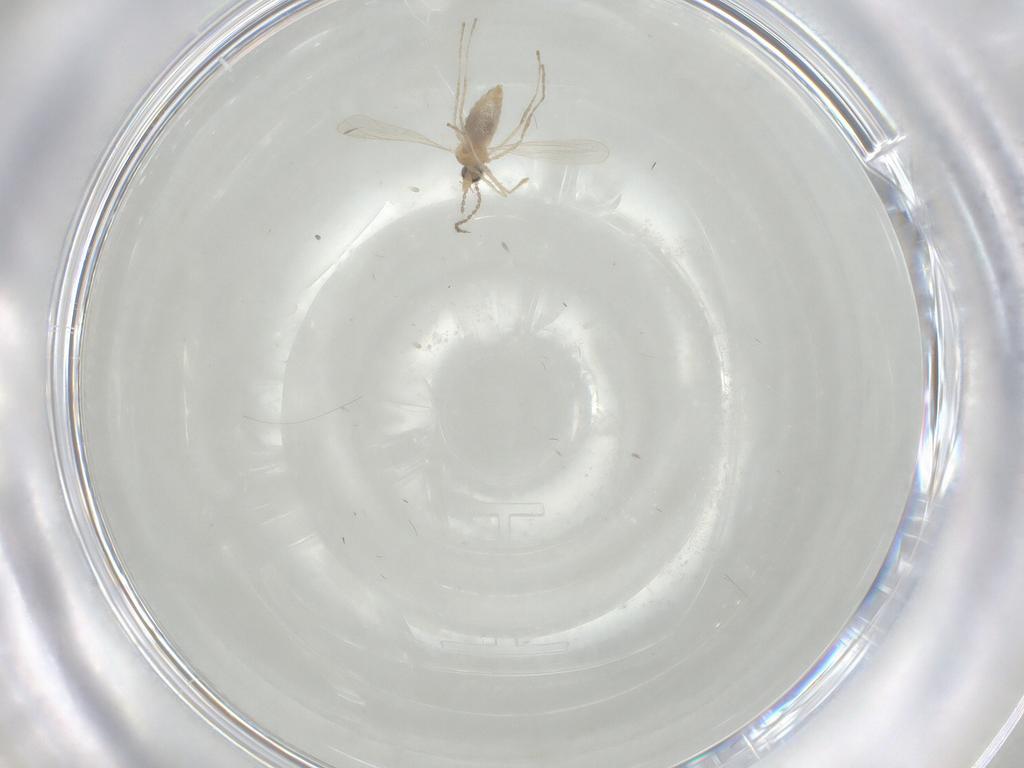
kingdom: Animalia
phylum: Arthropoda
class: Insecta
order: Diptera
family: Cecidomyiidae
